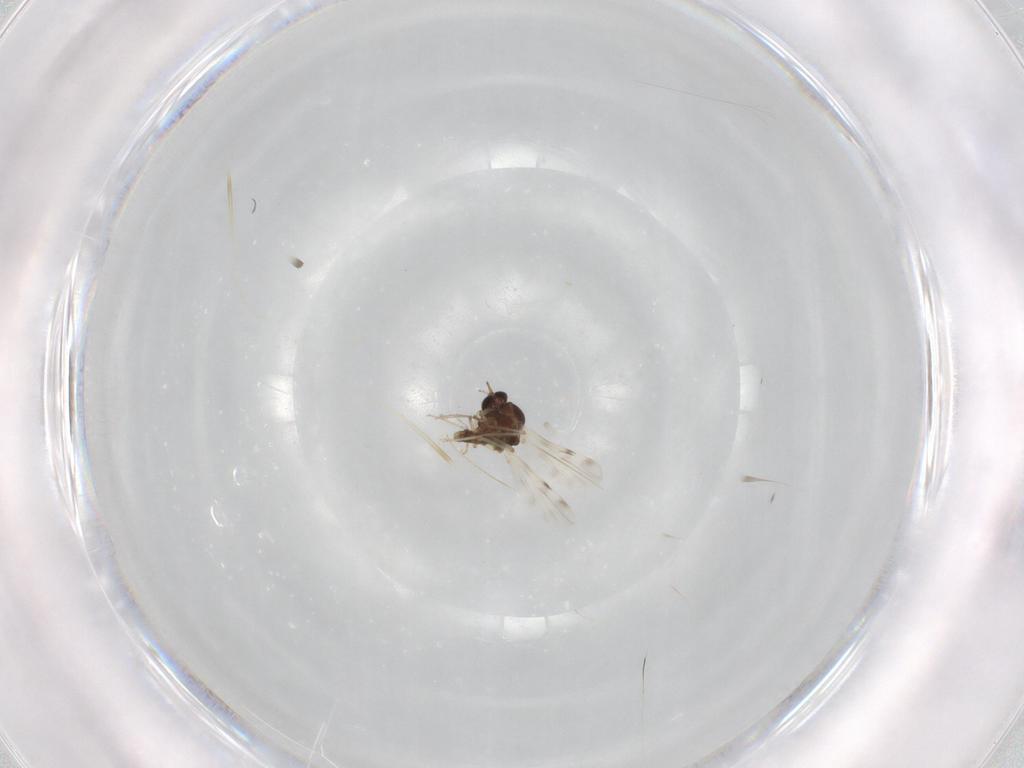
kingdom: Animalia
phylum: Arthropoda
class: Insecta
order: Diptera
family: Cecidomyiidae
